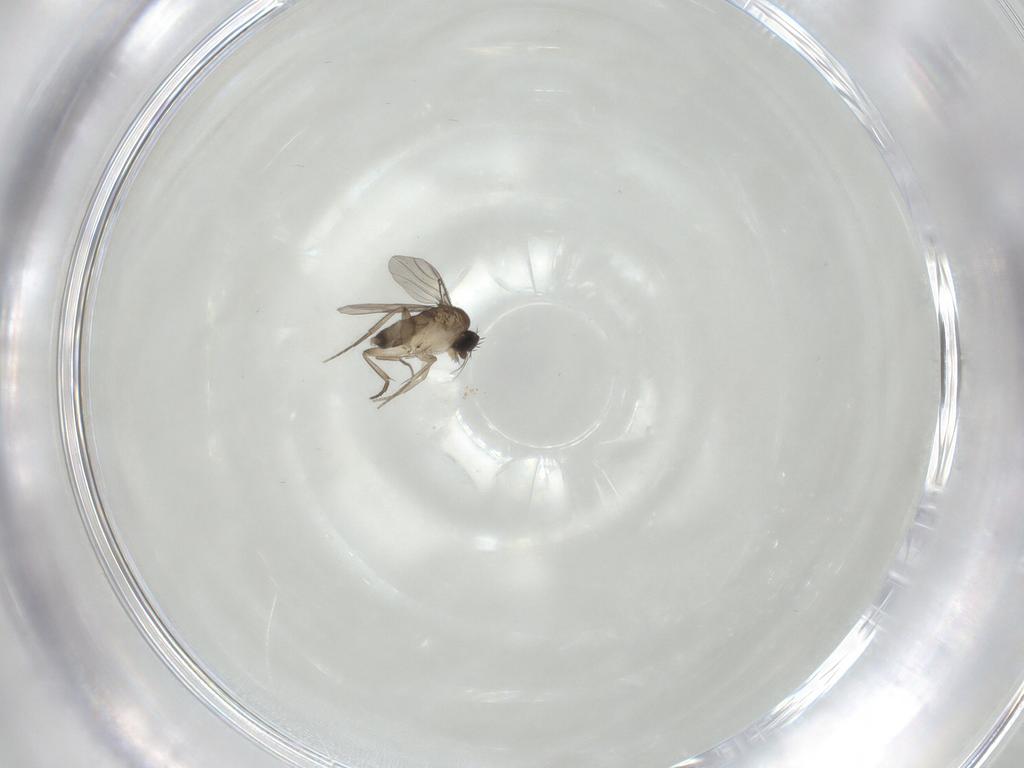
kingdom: Animalia
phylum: Arthropoda
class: Insecta
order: Diptera
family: Phoridae
